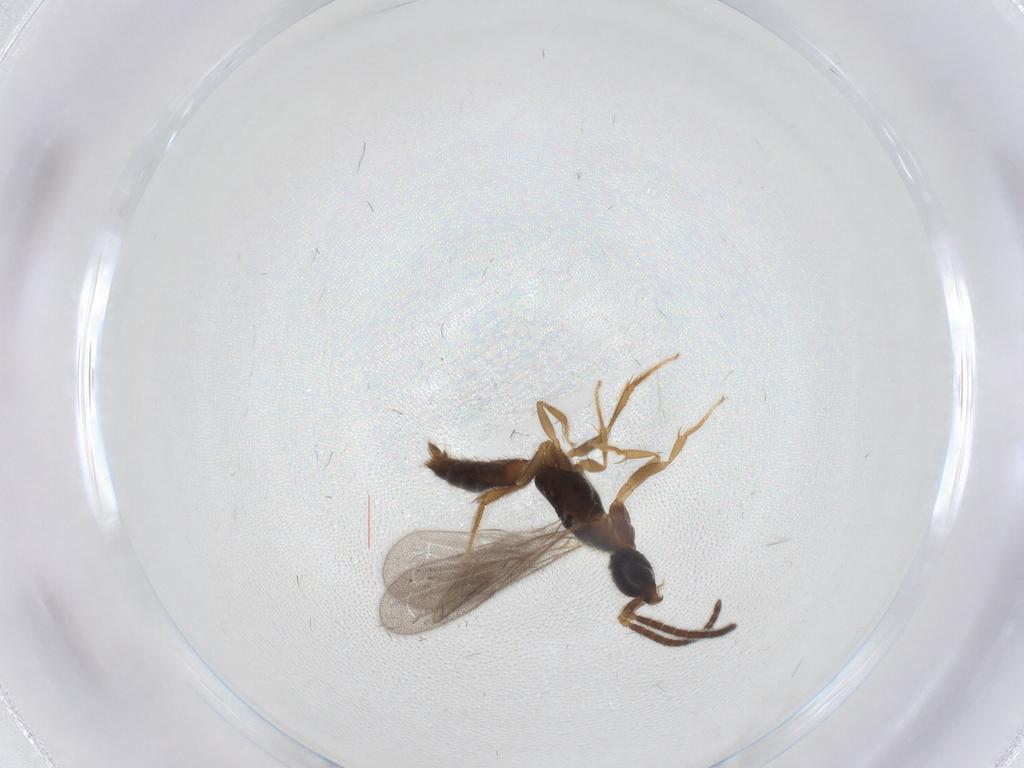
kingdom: Animalia
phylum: Arthropoda
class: Insecta
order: Hymenoptera
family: Bethylidae
